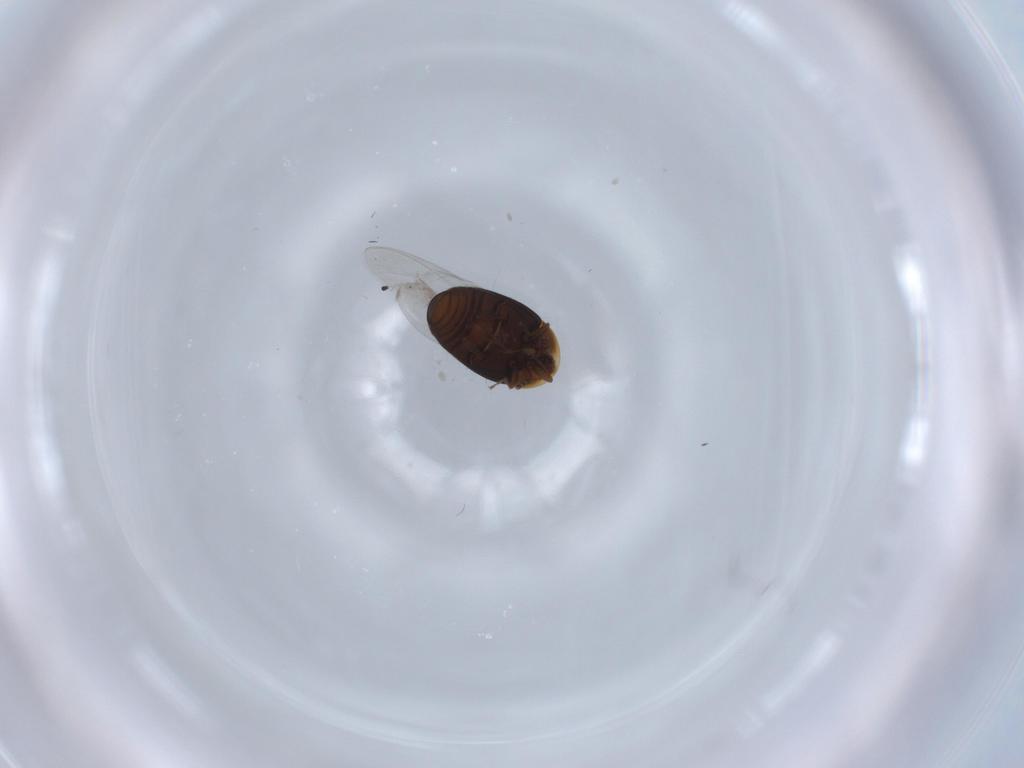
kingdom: Animalia
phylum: Arthropoda
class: Insecta
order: Coleoptera
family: Corylophidae
